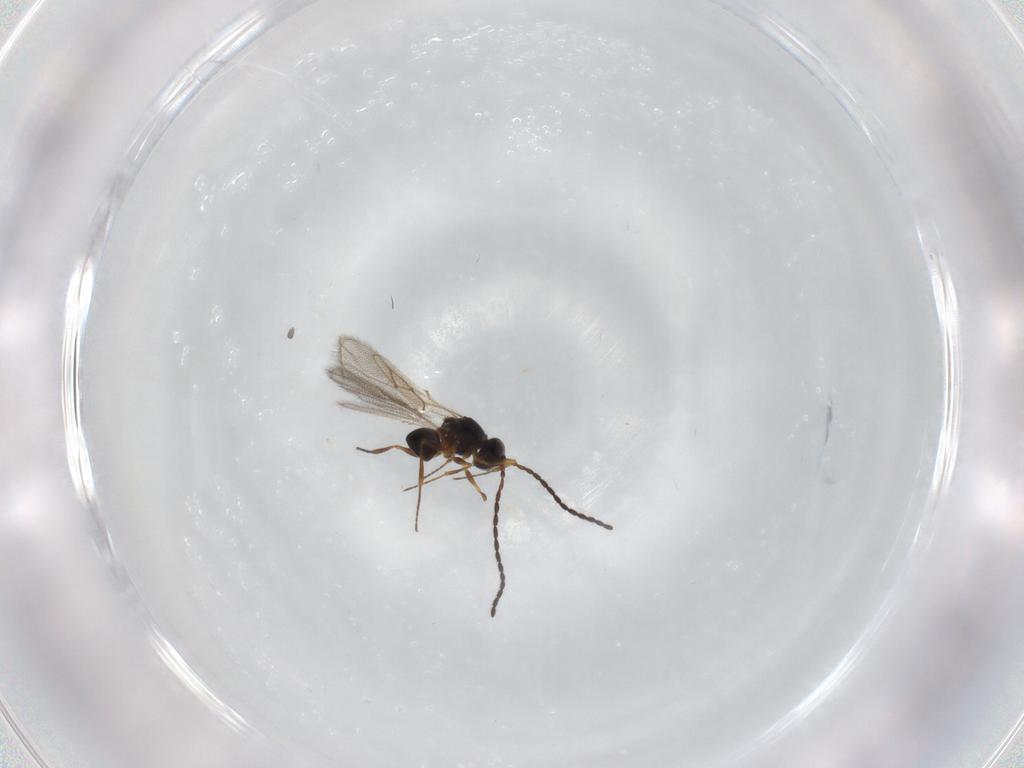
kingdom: Animalia
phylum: Arthropoda
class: Insecta
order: Hymenoptera
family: Figitidae
